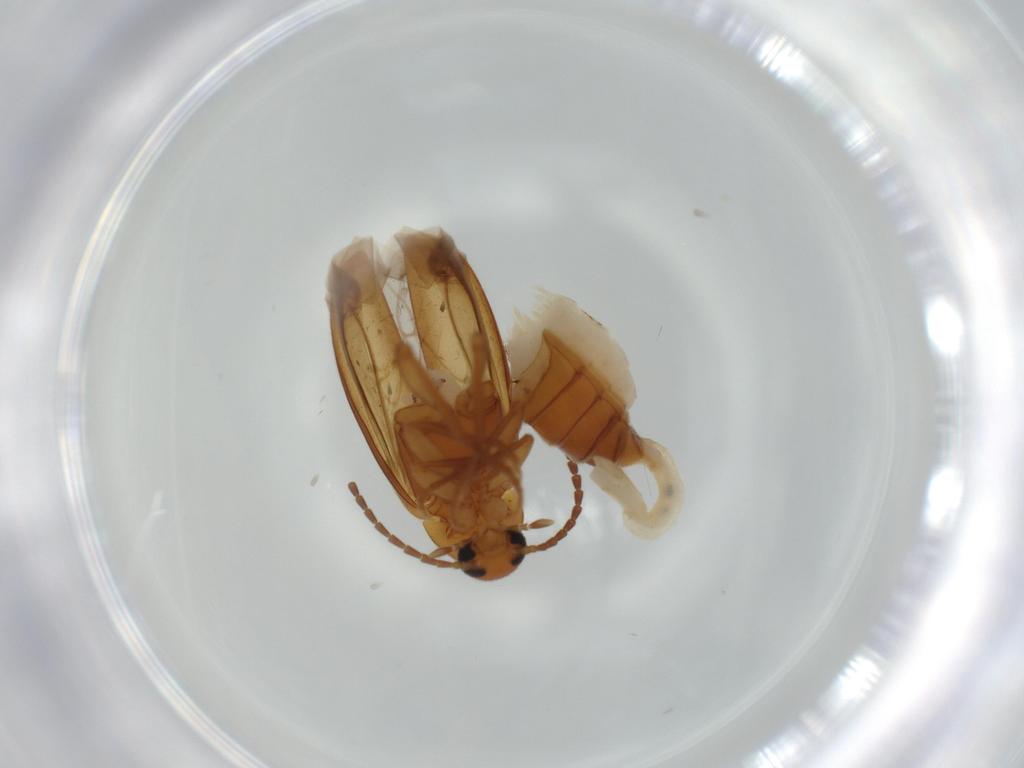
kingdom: Animalia
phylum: Arthropoda
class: Insecta
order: Coleoptera
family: Scraptiidae
